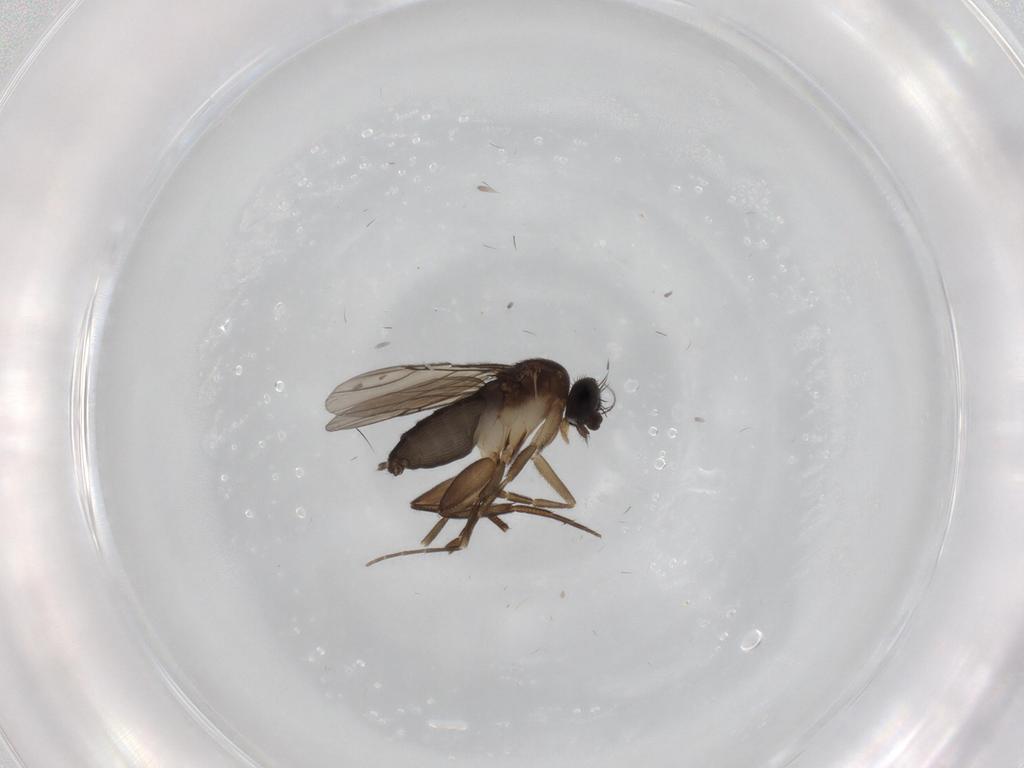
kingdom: Animalia
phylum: Arthropoda
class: Insecta
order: Diptera
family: Phoridae
